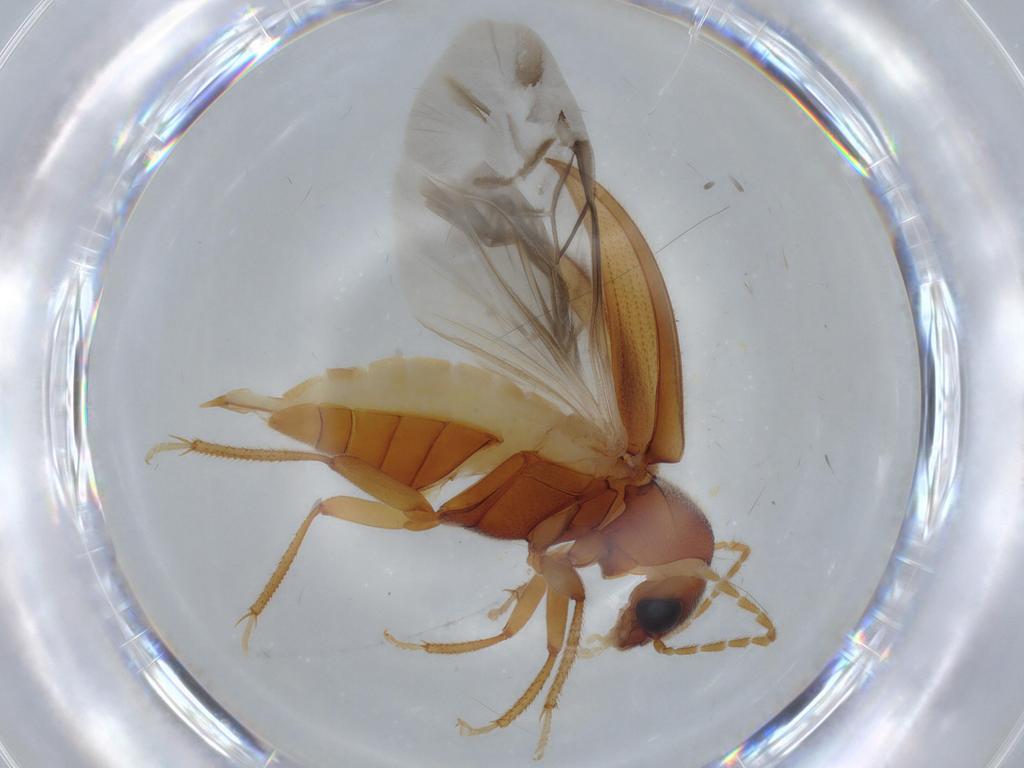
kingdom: Animalia
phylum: Arthropoda
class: Insecta
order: Coleoptera
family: Ptilodactylidae
